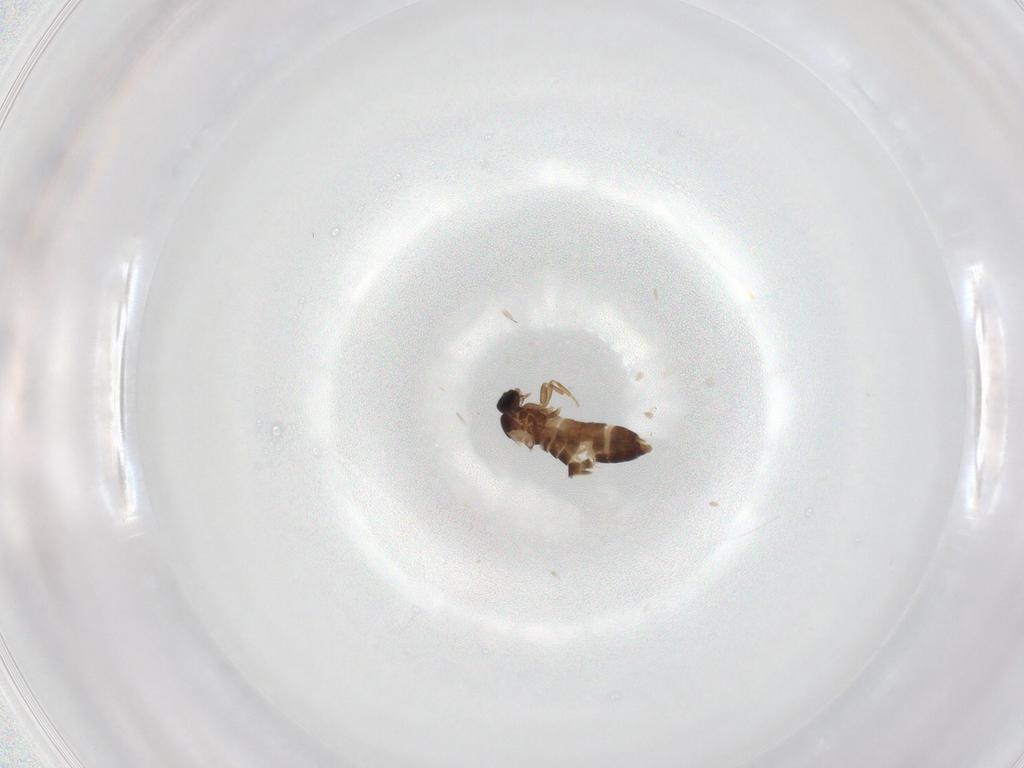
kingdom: Animalia
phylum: Arthropoda
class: Insecta
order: Diptera
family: Scatopsidae
